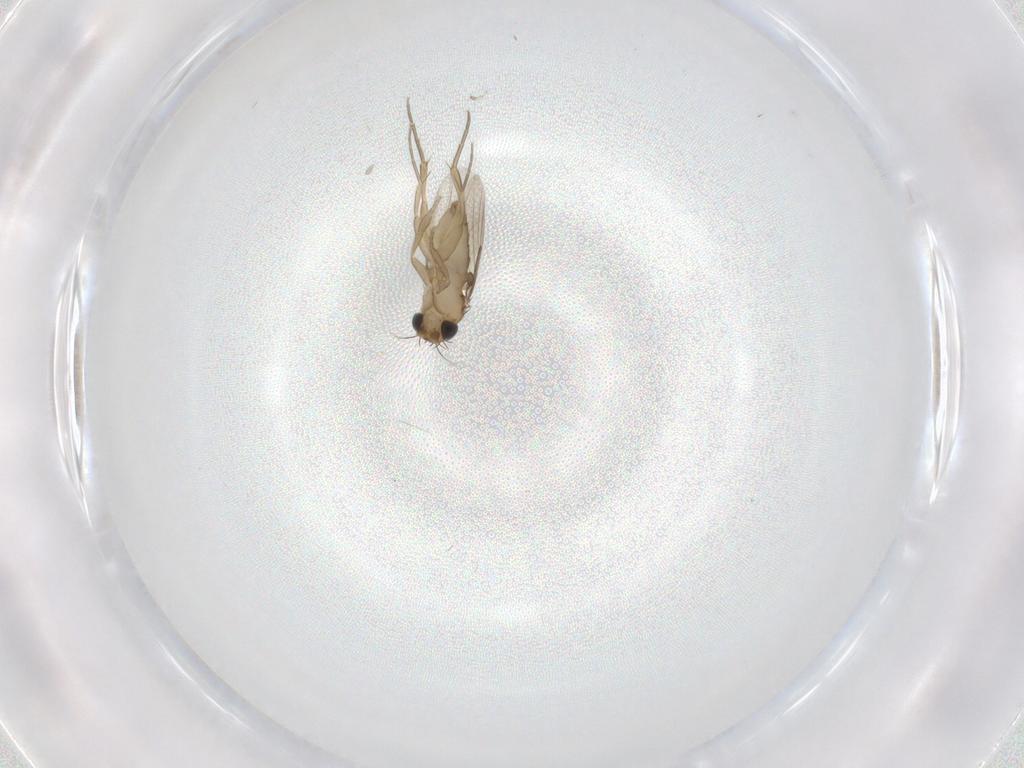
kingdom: Animalia
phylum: Arthropoda
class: Insecta
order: Diptera
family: Phoridae
